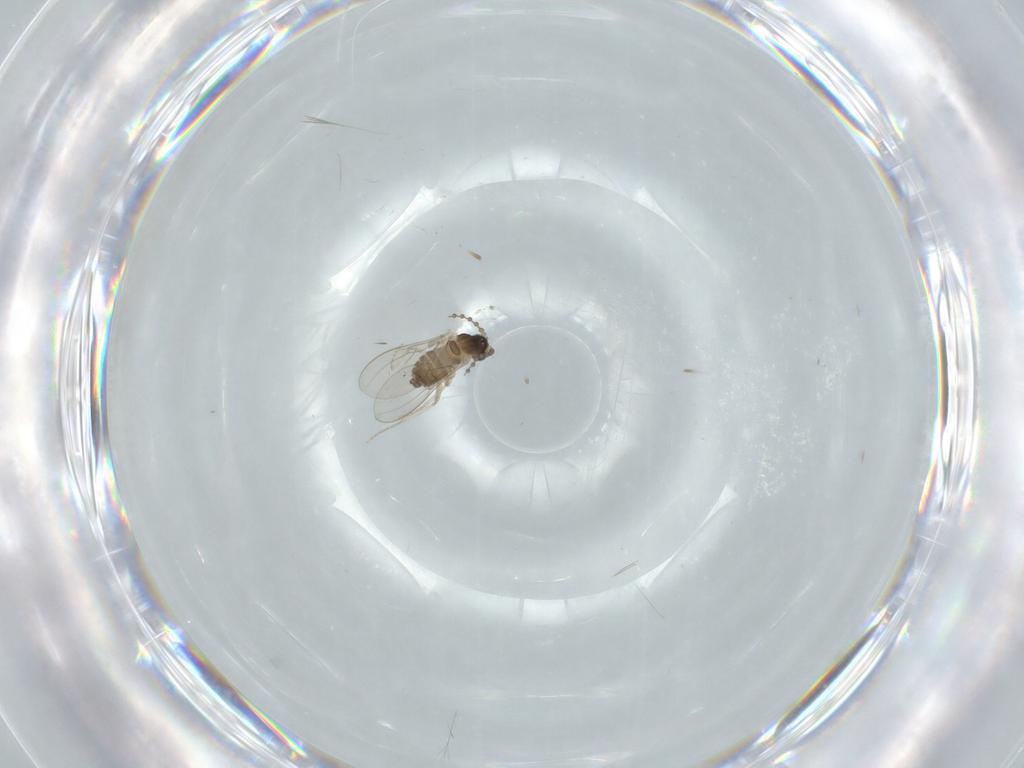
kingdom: Animalia
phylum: Arthropoda
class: Insecta
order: Diptera
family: Cecidomyiidae
